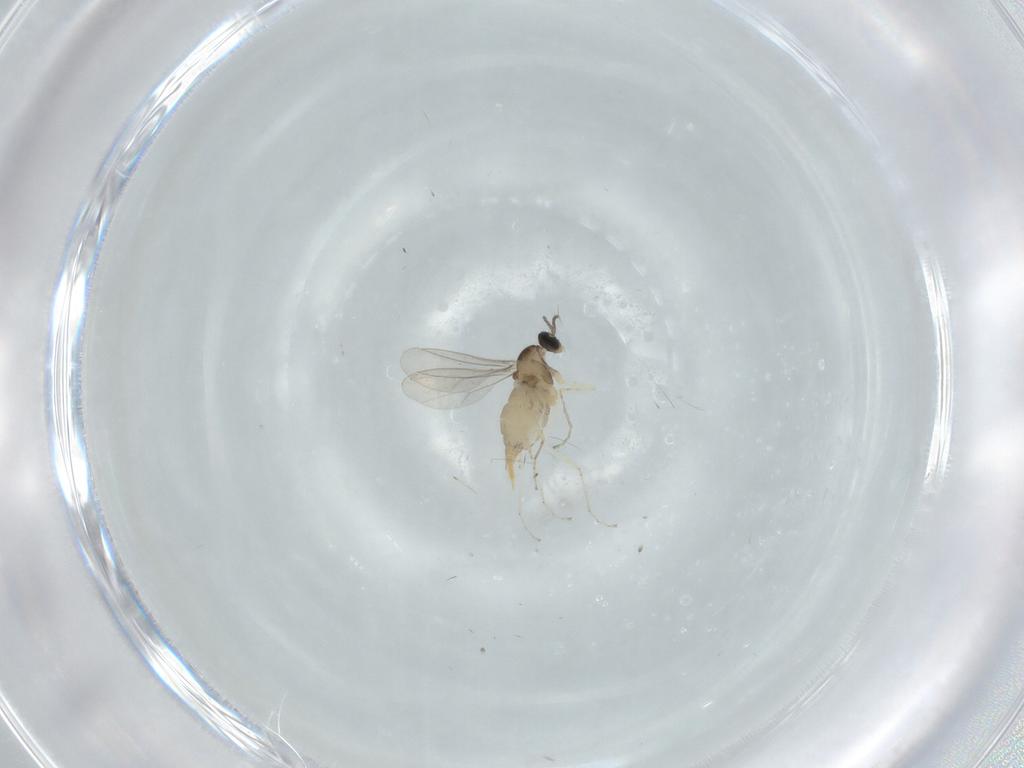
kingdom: Animalia
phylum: Arthropoda
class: Insecta
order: Diptera
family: Cecidomyiidae
